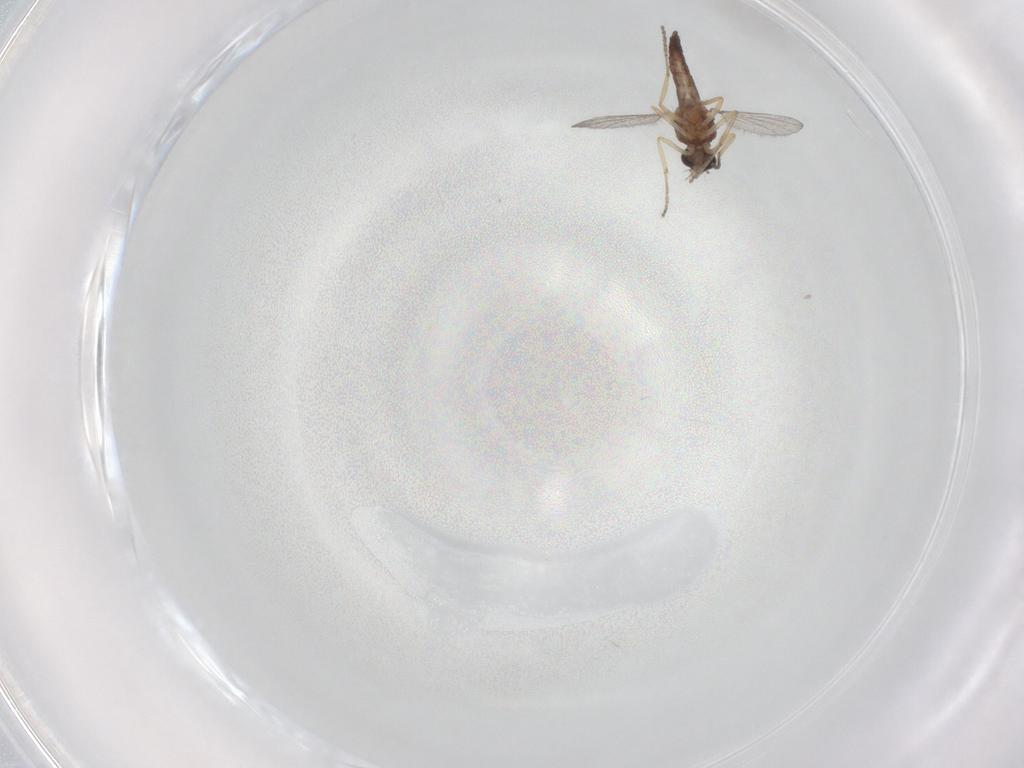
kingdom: Animalia
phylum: Arthropoda
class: Insecta
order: Diptera
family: Ceratopogonidae
